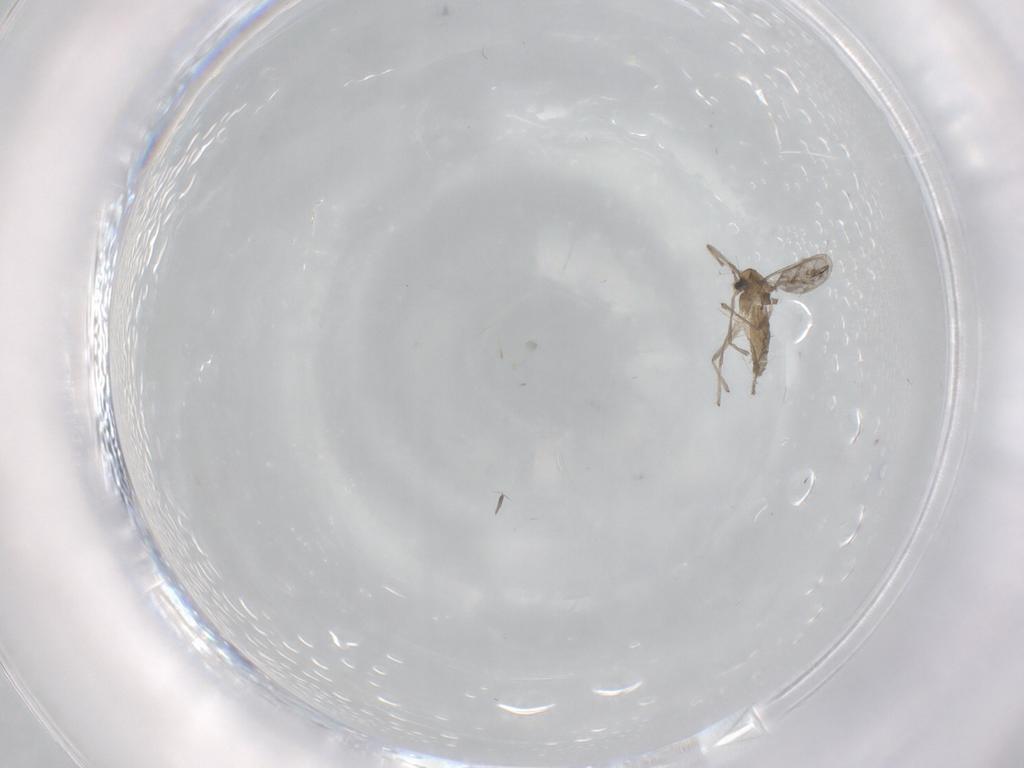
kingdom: Animalia
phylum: Arthropoda
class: Insecta
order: Diptera
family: Chironomidae
